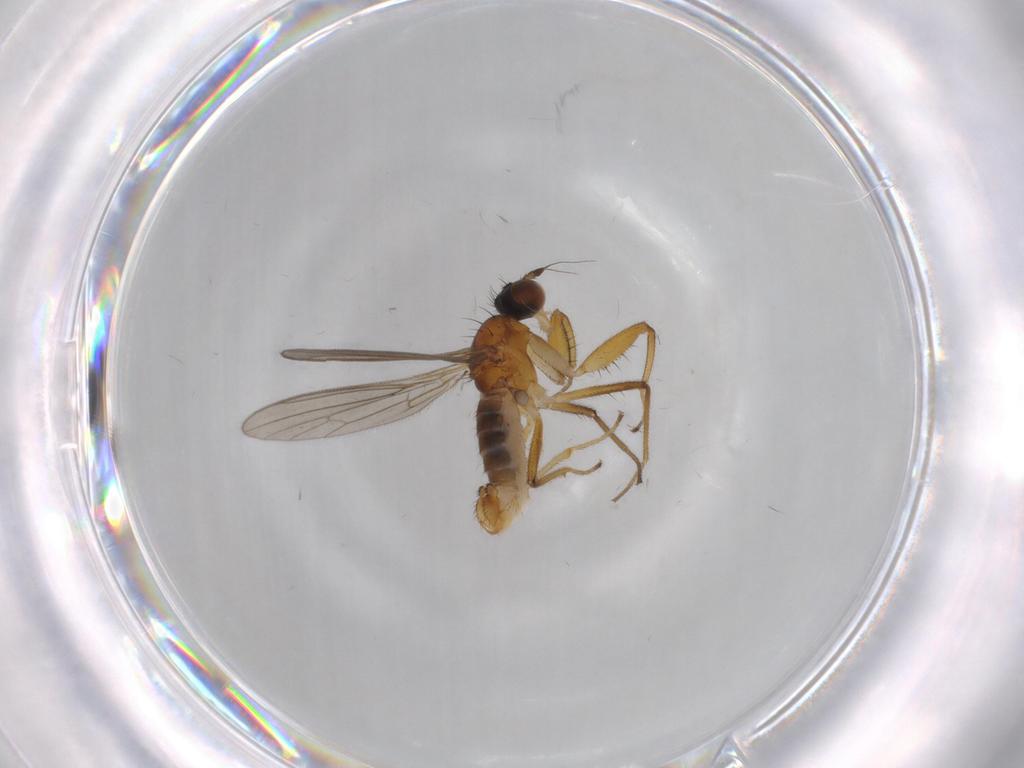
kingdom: Animalia
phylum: Arthropoda
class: Insecta
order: Diptera
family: Empididae
